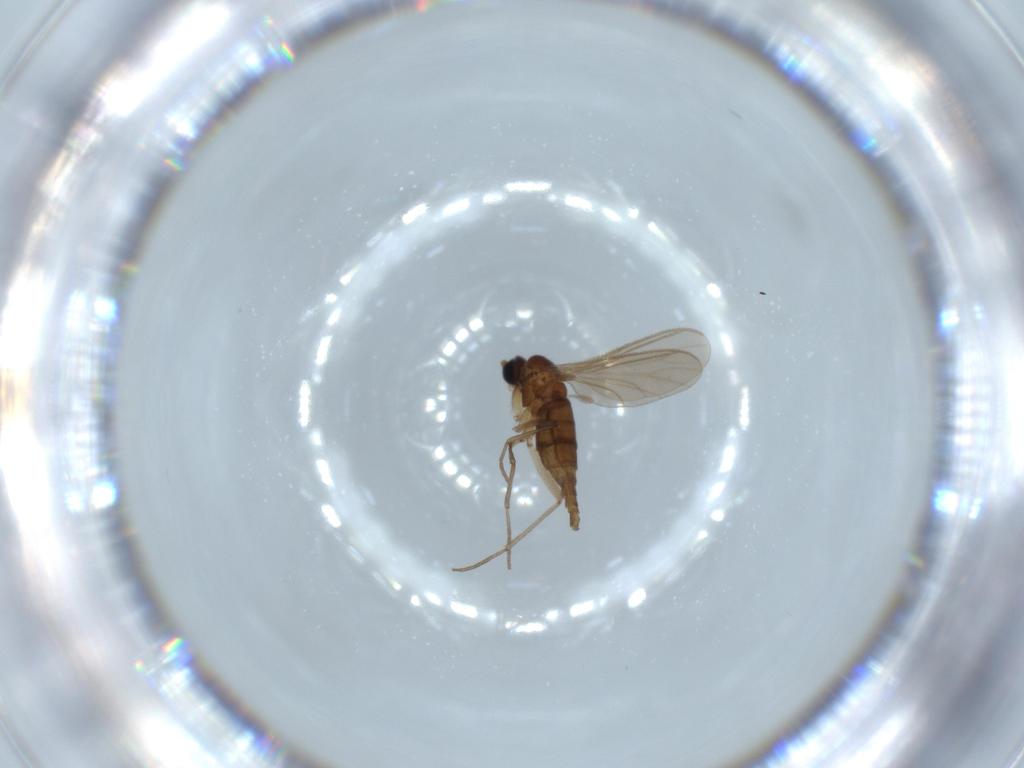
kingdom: Animalia
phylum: Arthropoda
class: Insecta
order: Diptera
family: Sciaridae
